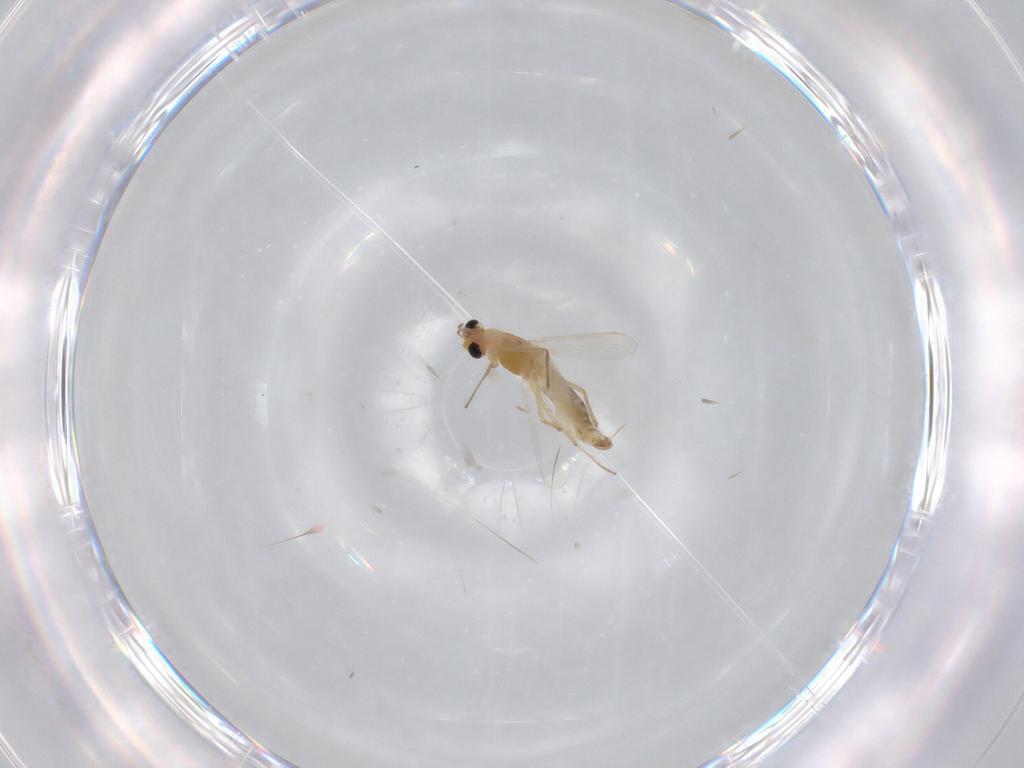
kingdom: Animalia
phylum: Arthropoda
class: Insecta
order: Diptera
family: Chironomidae
